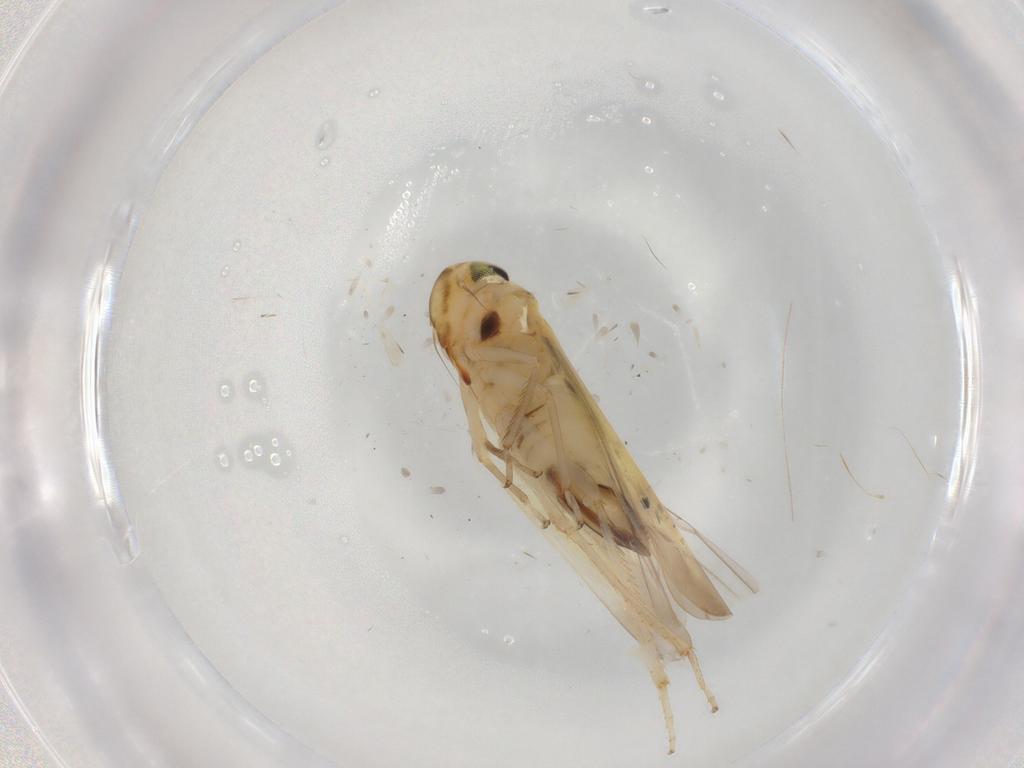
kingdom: Animalia
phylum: Arthropoda
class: Insecta
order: Hemiptera
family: Cicadellidae
